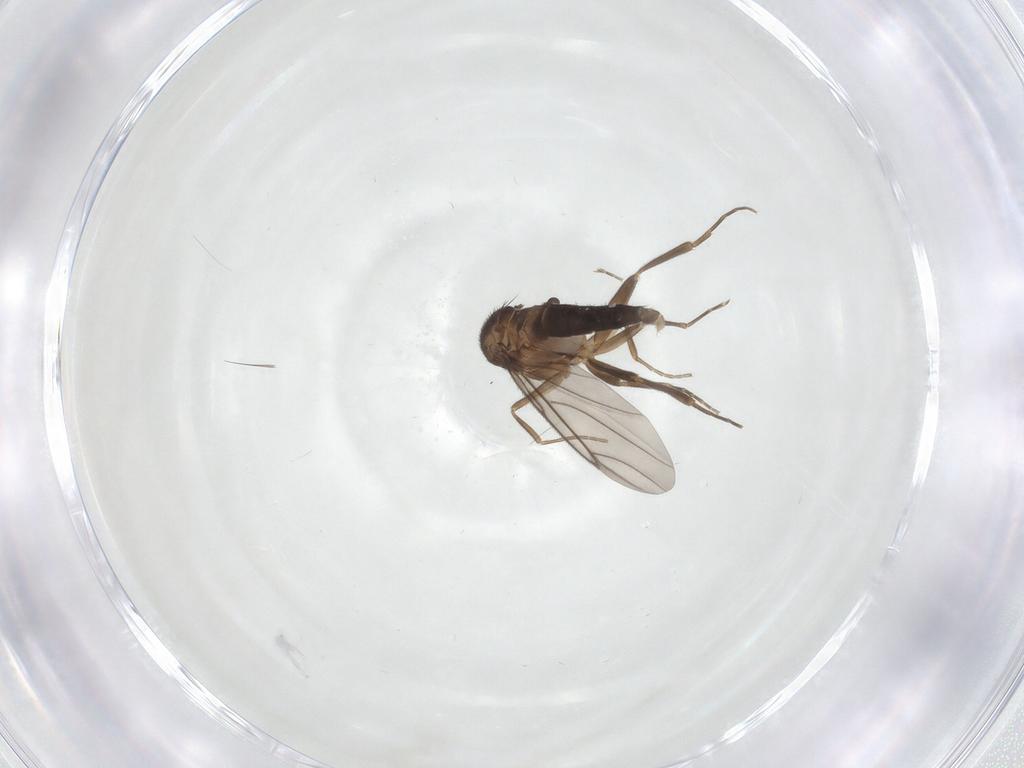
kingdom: Animalia
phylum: Arthropoda
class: Insecta
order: Diptera
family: Phoridae
